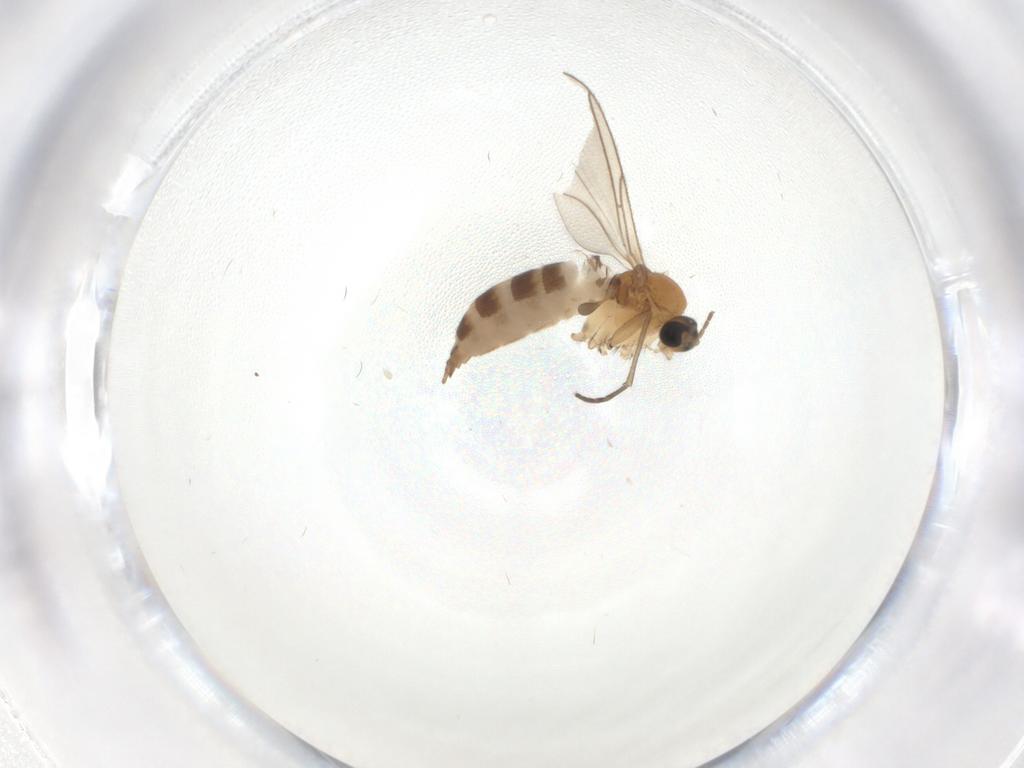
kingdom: Animalia
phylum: Arthropoda
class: Insecta
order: Diptera
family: Sciaridae
